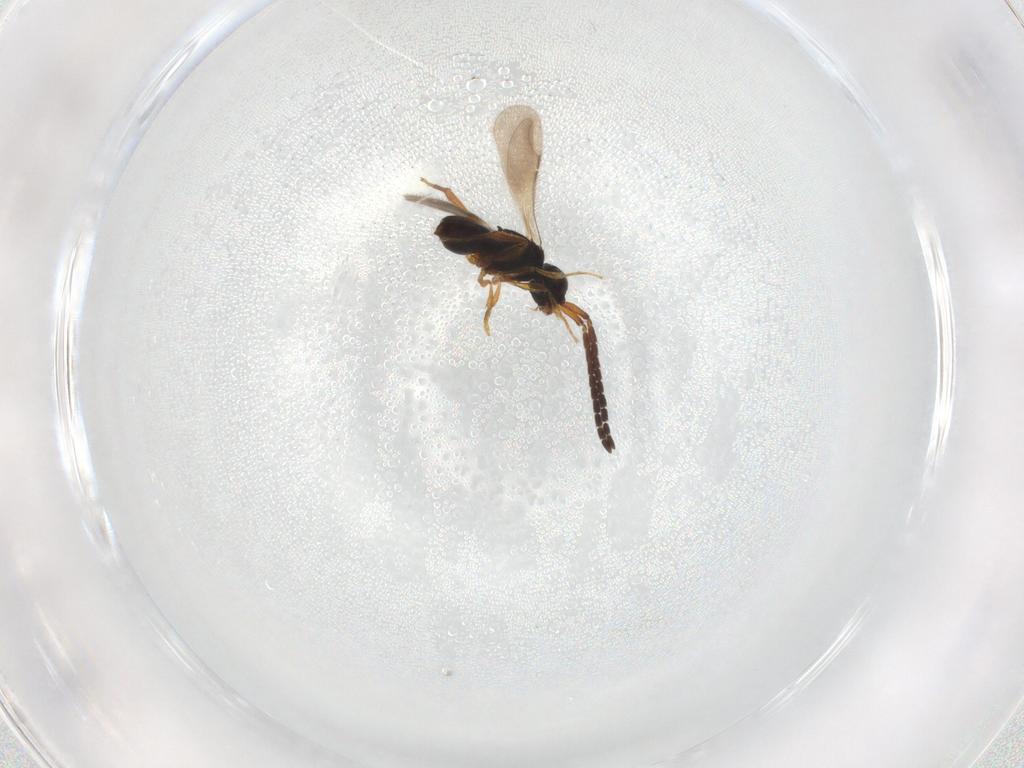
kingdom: Animalia
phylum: Arthropoda
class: Insecta
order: Hymenoptera
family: Ceraphronidae
